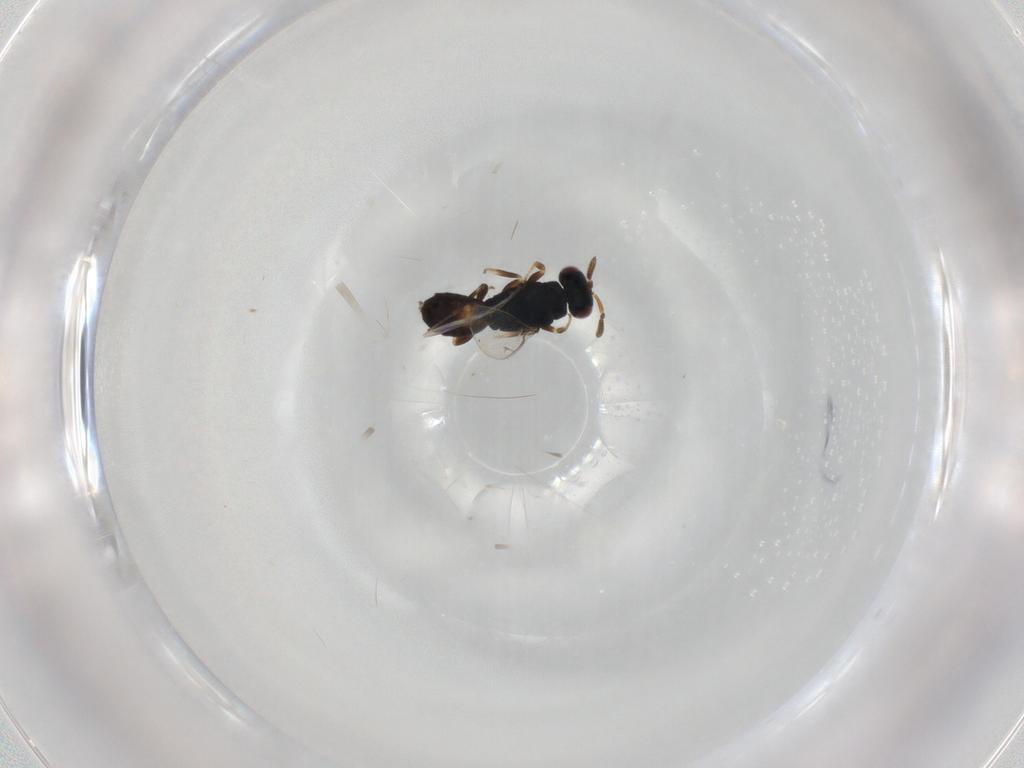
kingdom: Animalia
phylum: Arthropoda
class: Insecta
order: Hymenoptera
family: Pteromalidae
